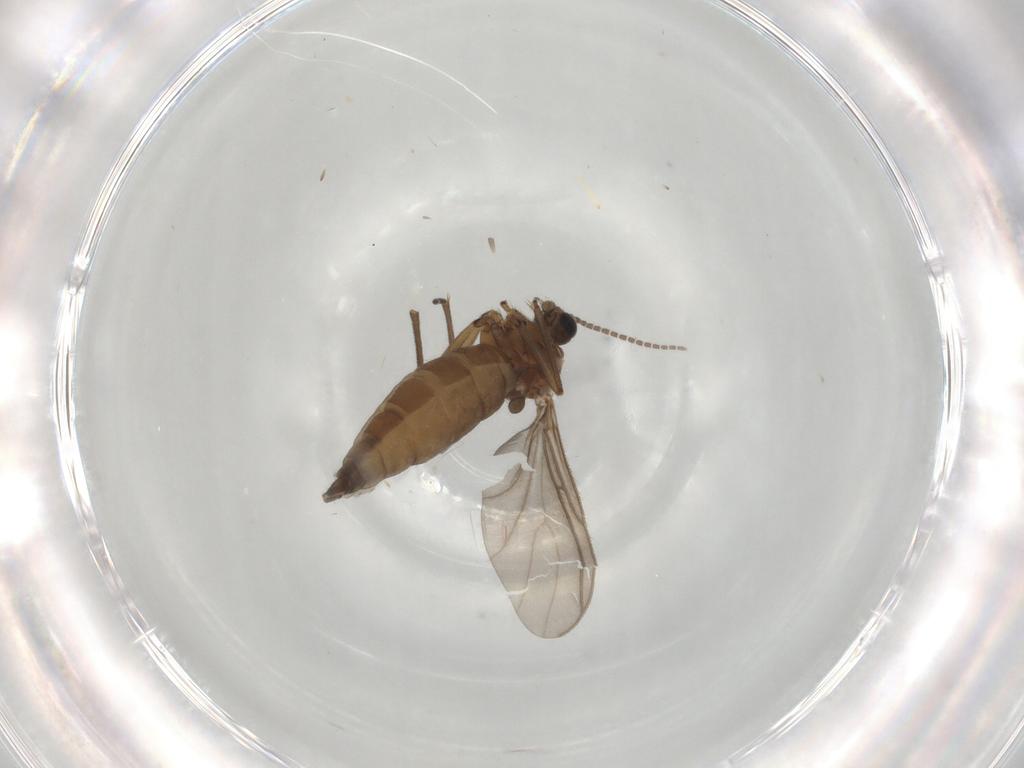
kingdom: Animalia
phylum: Arthropoda
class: Insecta
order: Diptera
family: Sciaridae
